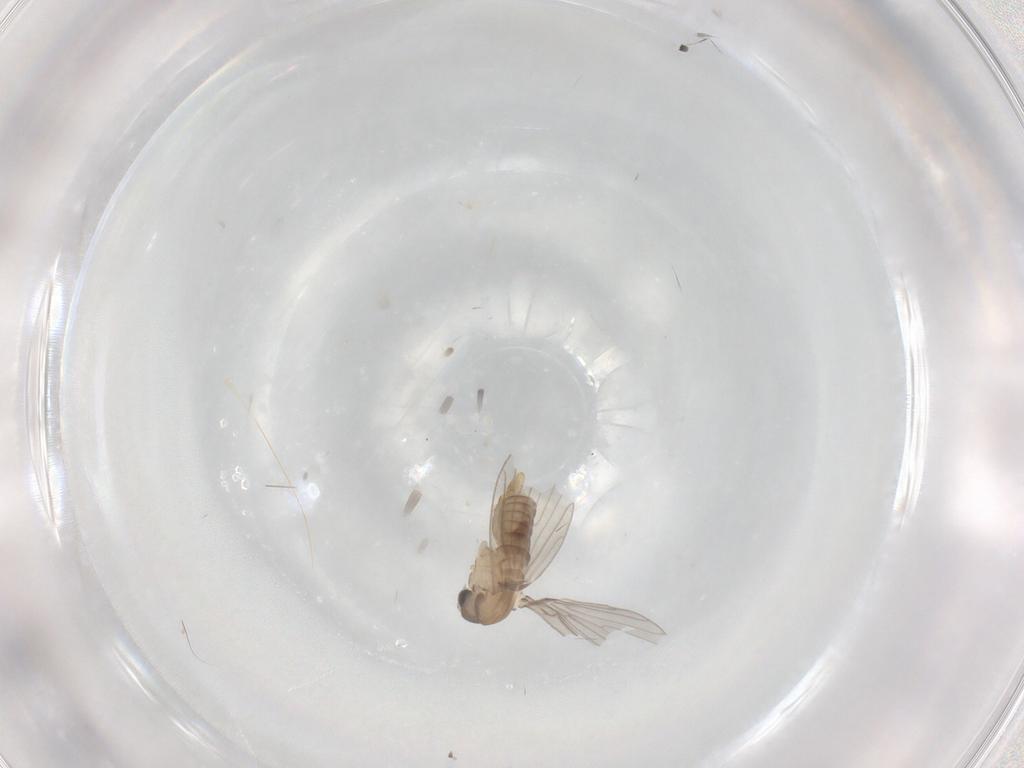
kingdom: Animalia
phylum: Arthropoda
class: Insecta
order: Diptera
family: Psychodidae
